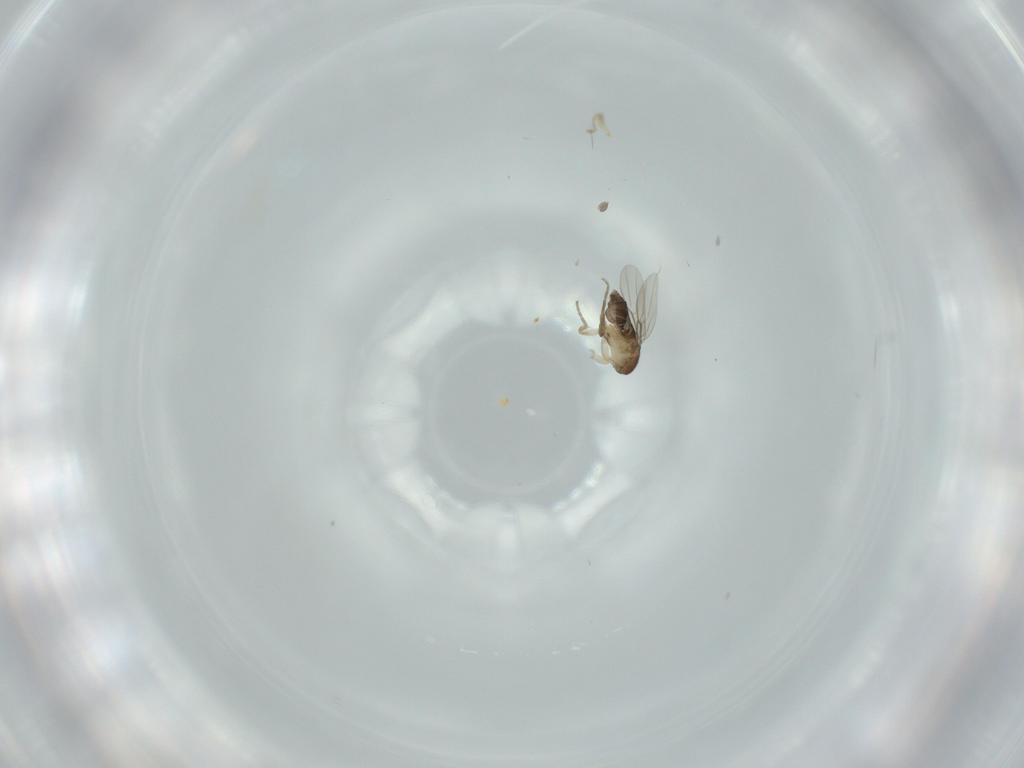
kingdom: Animalia
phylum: Arthropoda
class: Insecta
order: Diptera
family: Phoridae
